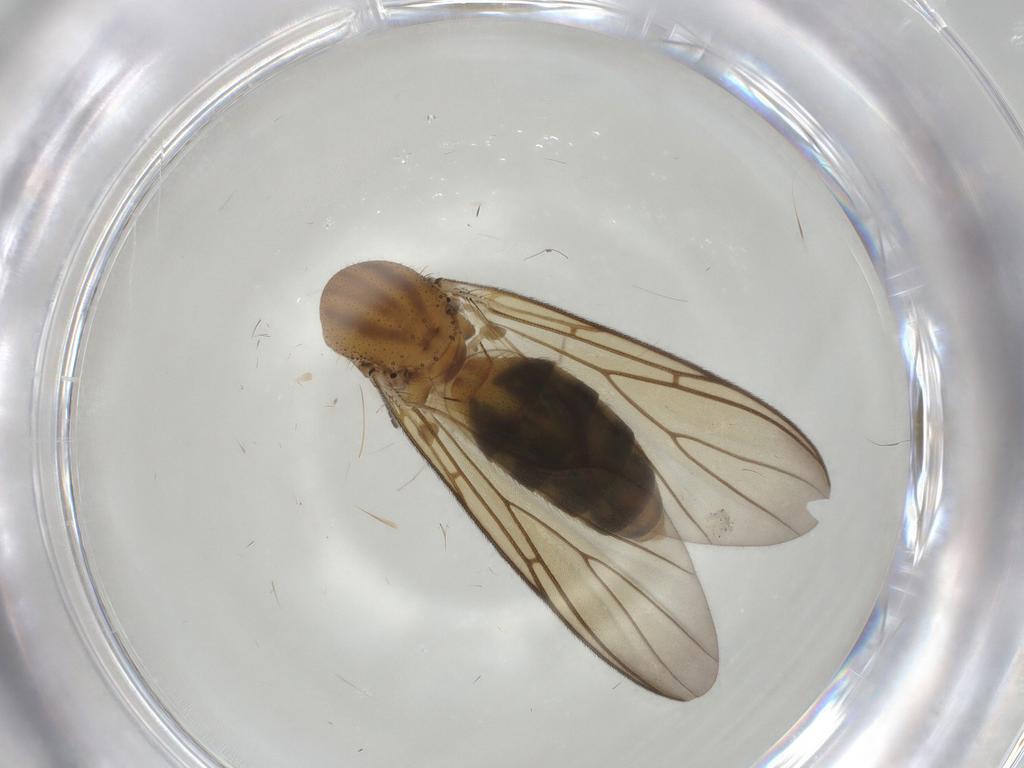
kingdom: Animalia
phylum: Arthropoda
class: Insecta
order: Diptera
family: Mycetophilidae
